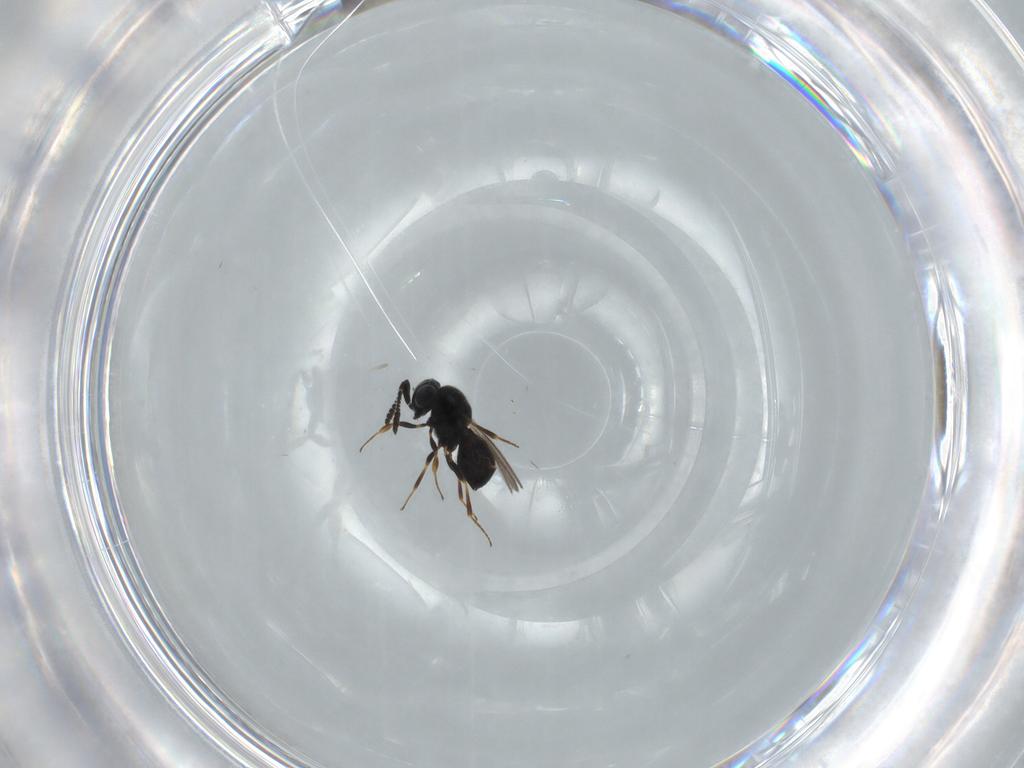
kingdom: Animalia
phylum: Arthropoda
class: Insecta
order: Hymenoptera
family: Scelionidae
